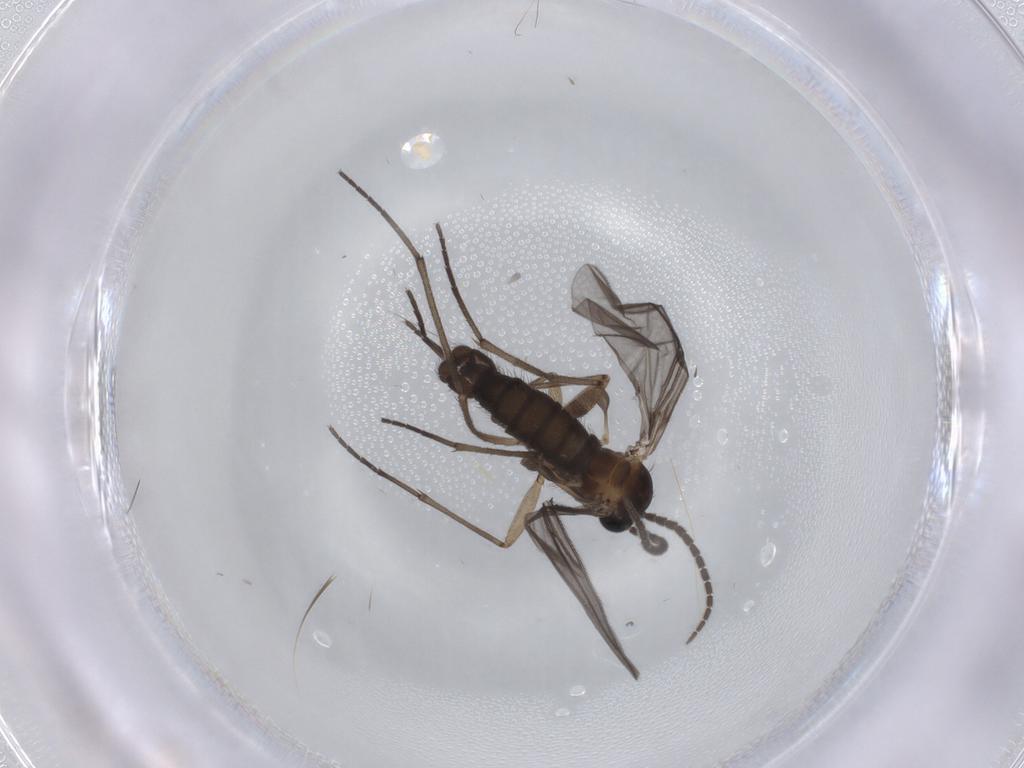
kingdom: Animalia
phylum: Arthropoda
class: Insecta
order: Diptera
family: Sciaridae
